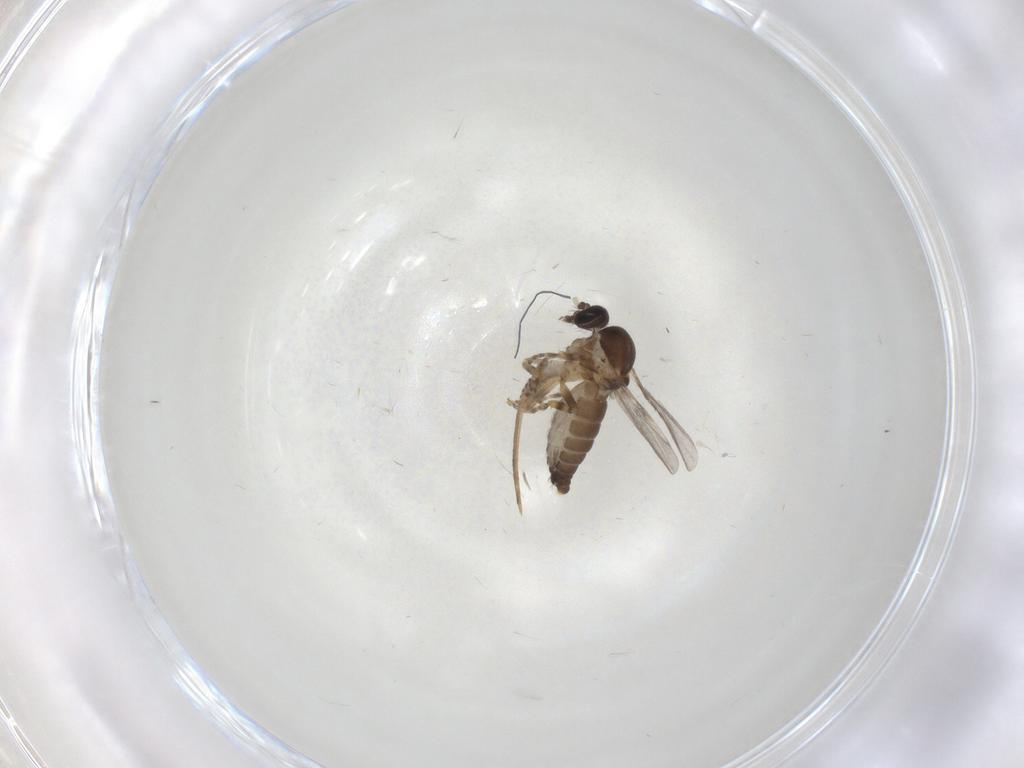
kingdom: Animalia
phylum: Arthropoda
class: Insecta
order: Diptera
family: Ceratopogonidae
